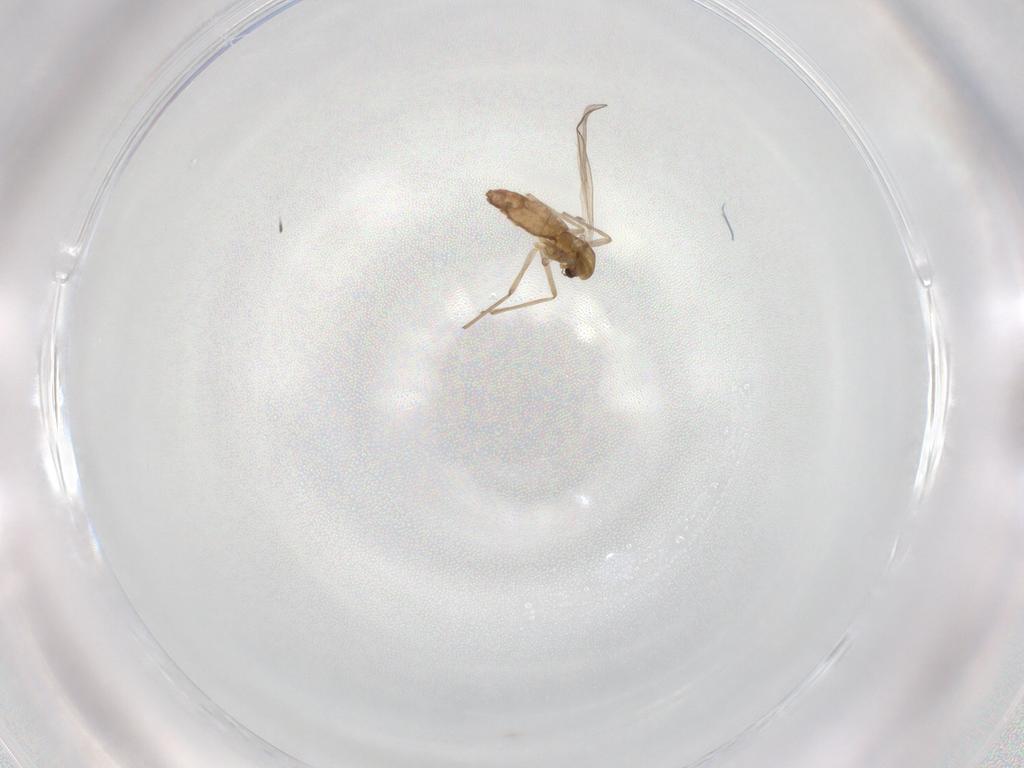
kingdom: Animalia
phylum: Arthropoda
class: Insecta
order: Diptera
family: Chironomidae
